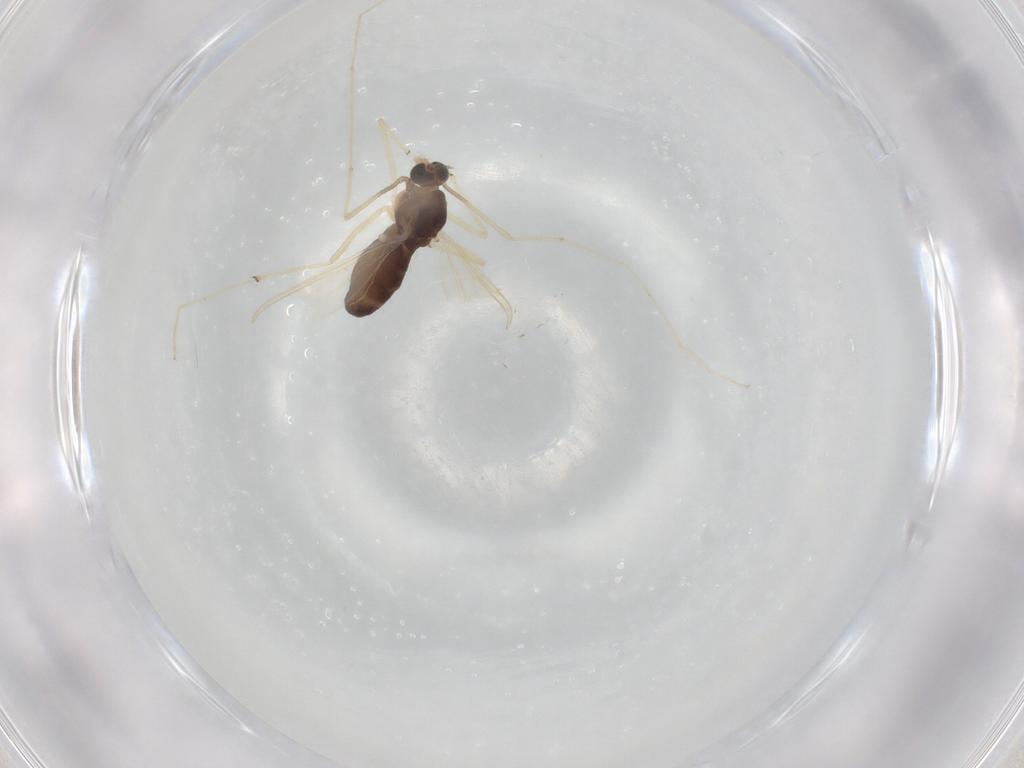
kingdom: Animalia
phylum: Arthropoda
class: Insecta
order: Diptera
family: Chironomidae
